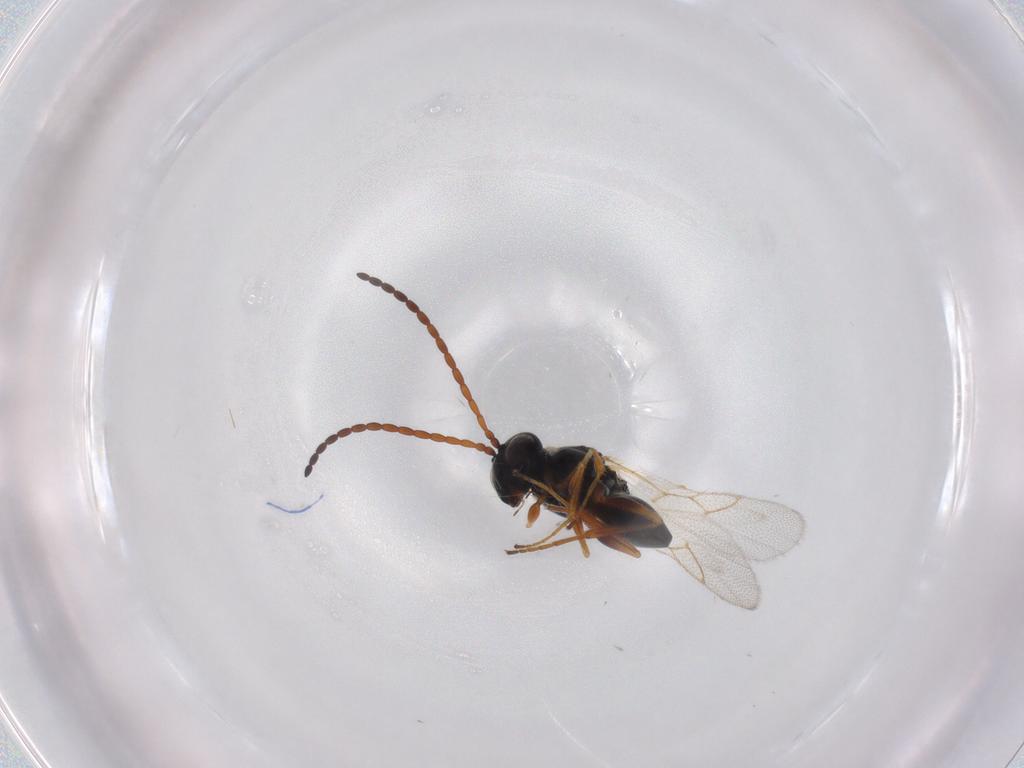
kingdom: Animalia
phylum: Arthropoda
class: Insecta
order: Hymenoptera
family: Figitidae
